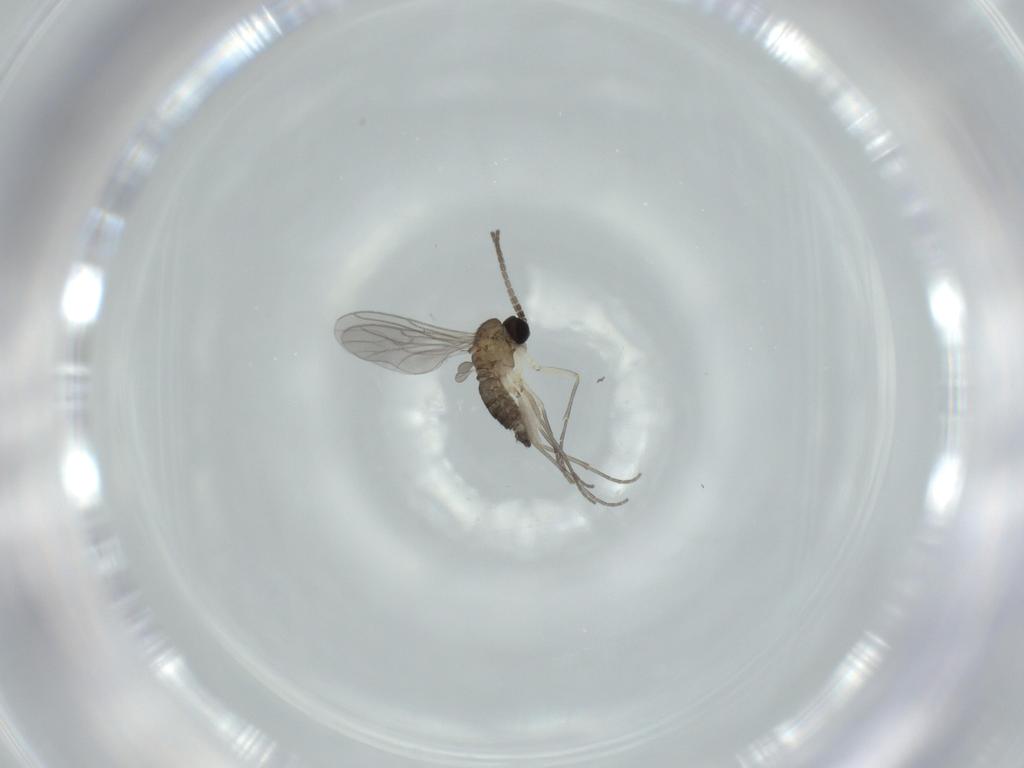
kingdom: Animalia
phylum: Arthropoda
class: Insecta
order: Diptera
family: Sciaridae
